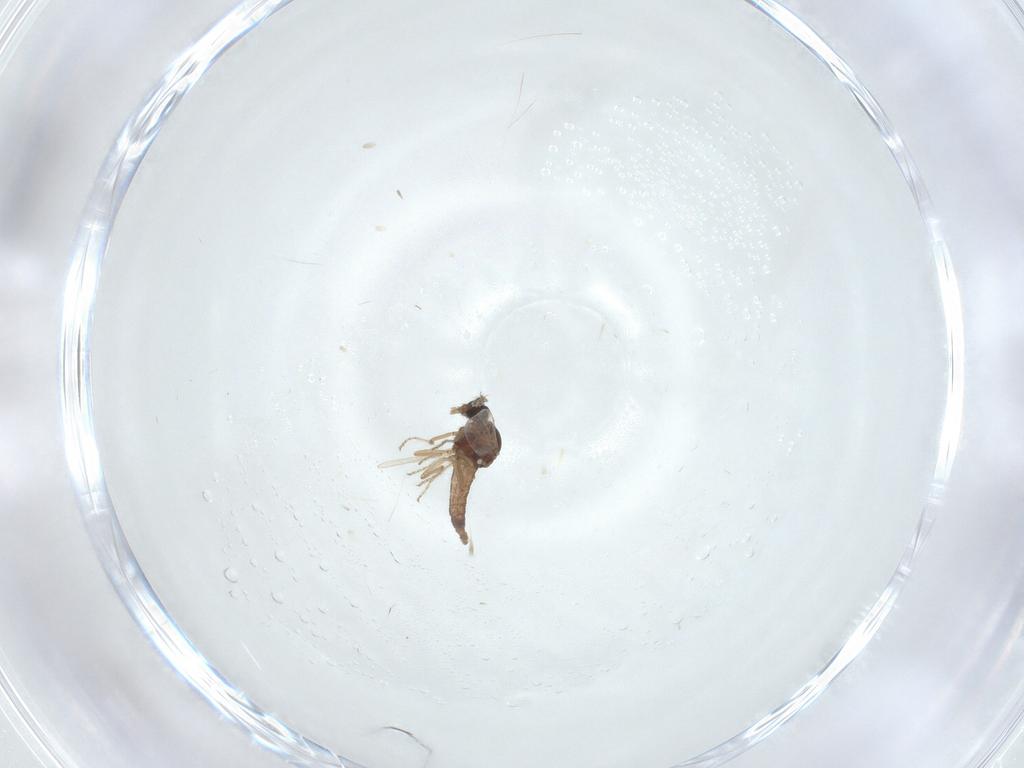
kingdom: Animalia
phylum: Arthropoda
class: Insecta
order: Diptera
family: Ceratopogonidae
